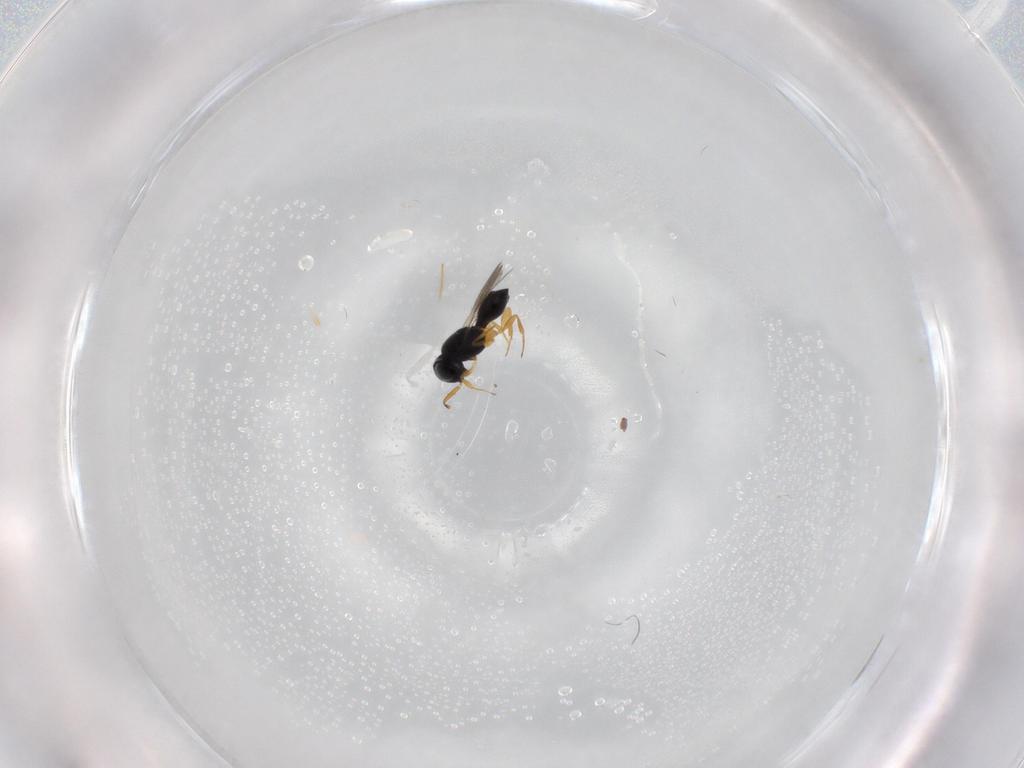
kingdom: Animalia
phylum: Arthropoda
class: Insecta
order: Hymenoptera
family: Scelionidae
